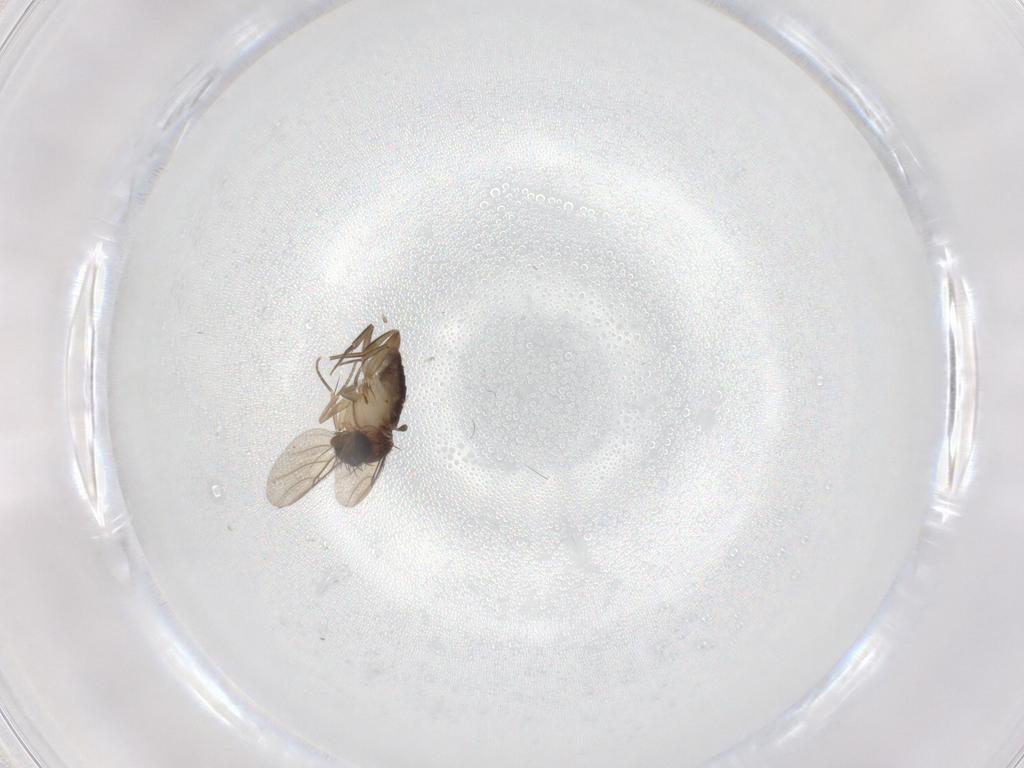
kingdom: Animalia
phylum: Arthropoda
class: Insecta
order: Diptera
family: Phoridae
